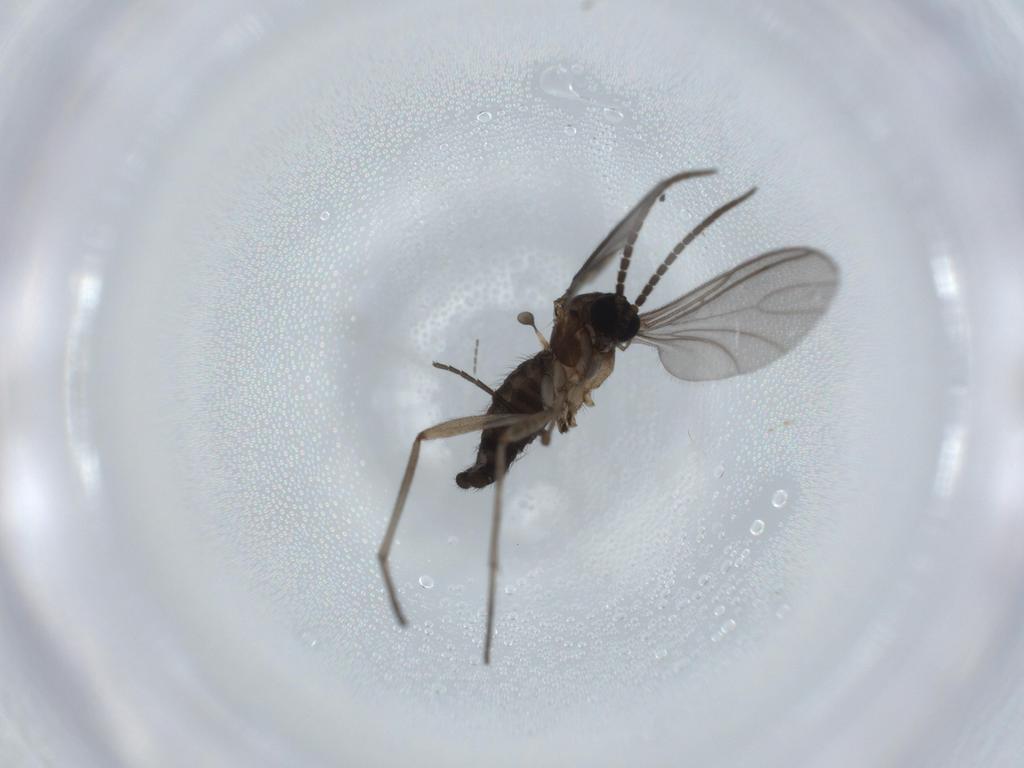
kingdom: Animalia
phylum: Arthropoda
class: Insecta
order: Diptera
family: Sciaridae
